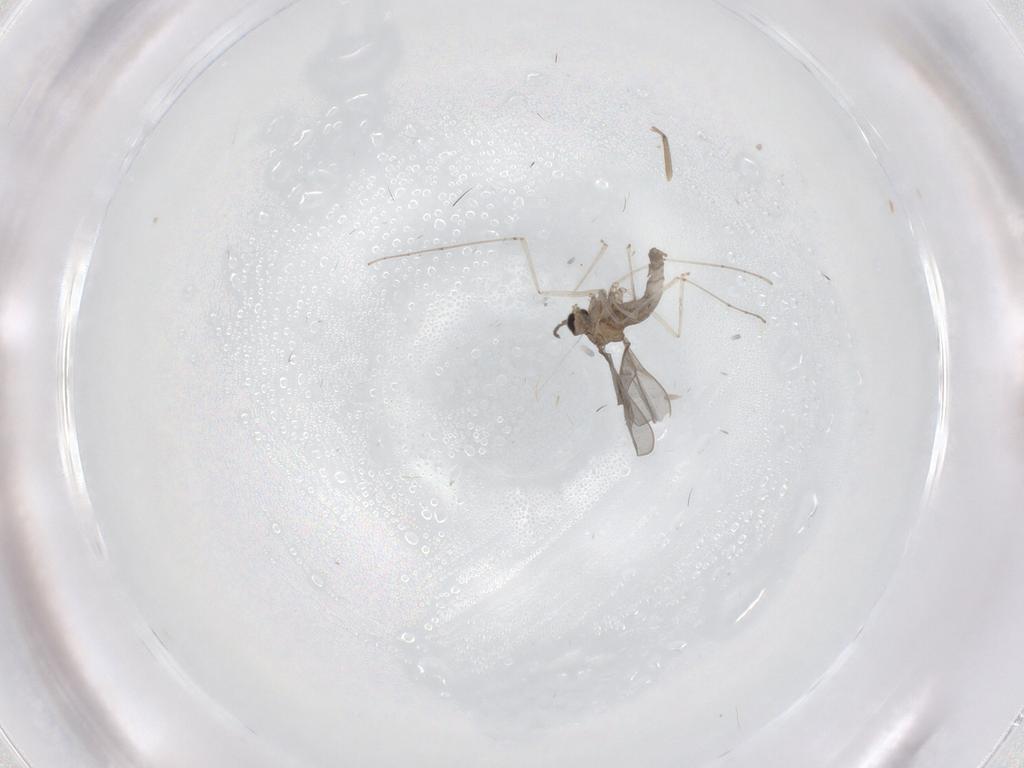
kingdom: Animalia
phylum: Arthropoda
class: Insecta
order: Diptera
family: Cecidomyiidae
